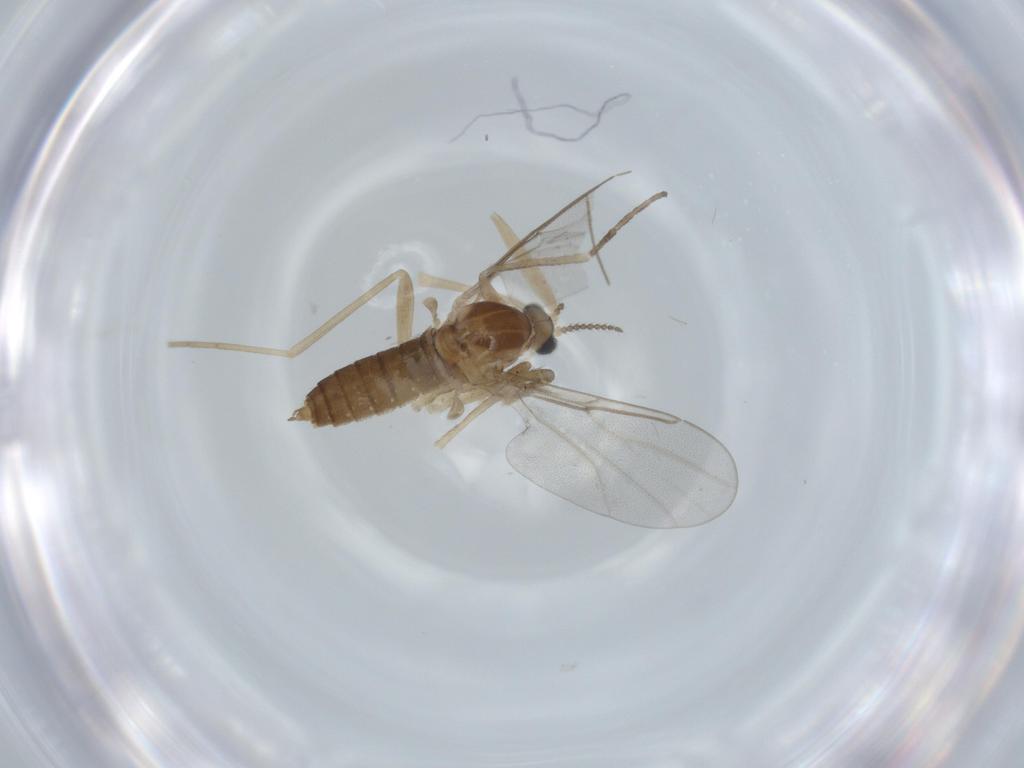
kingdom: Animalia
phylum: Arthropoda
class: Insecta
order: Diptera
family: Cecidomyiidae
